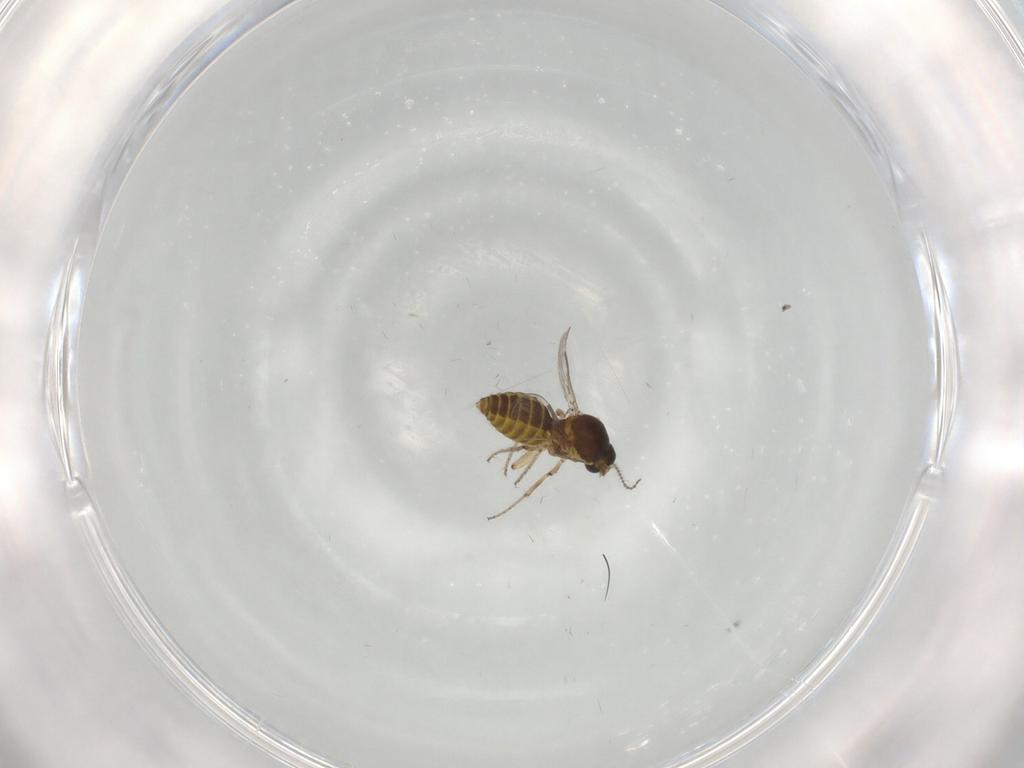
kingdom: Animalia
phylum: Arthropoda
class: Insecta
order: Diptera
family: Ceratopogonidae
